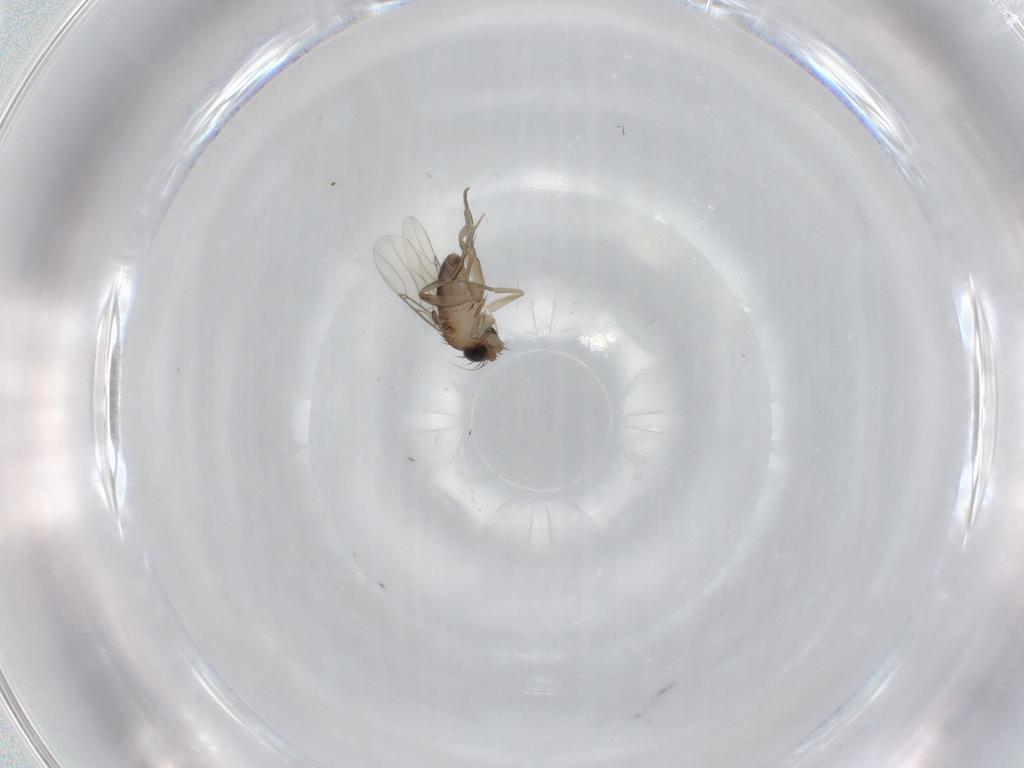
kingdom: Animalia
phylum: Arthropoda
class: Insecta
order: Diptera
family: Phoridae
